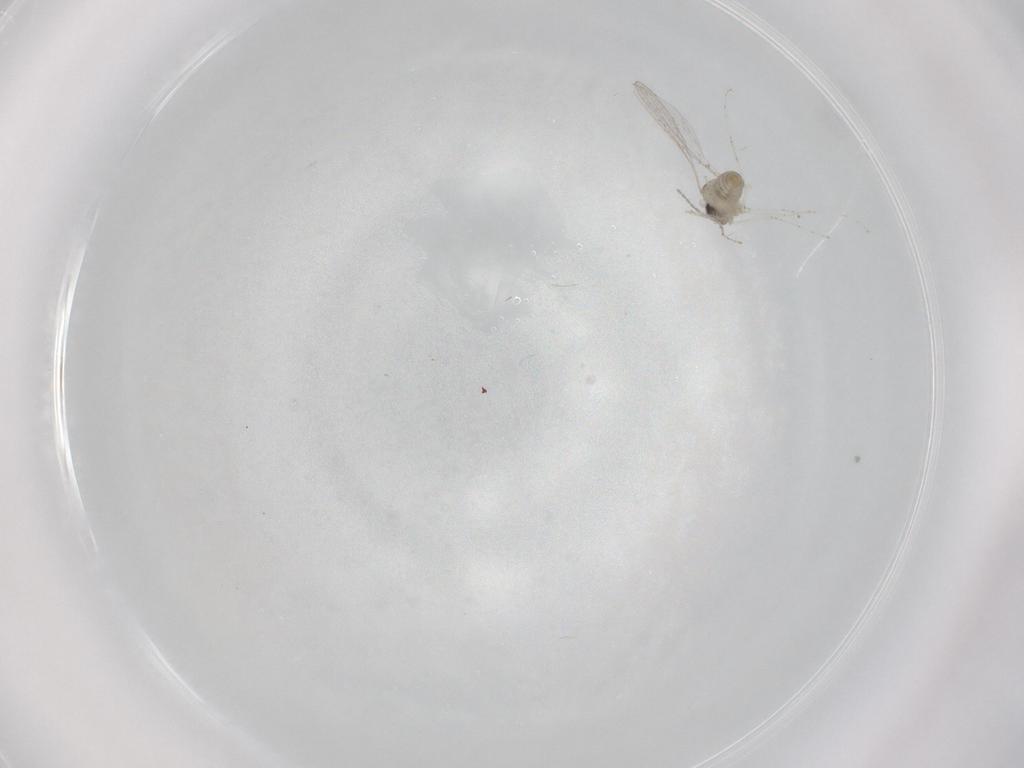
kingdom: Animalia
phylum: Arthropoda
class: Insecta
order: Diptera
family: Cecidomyiidae
